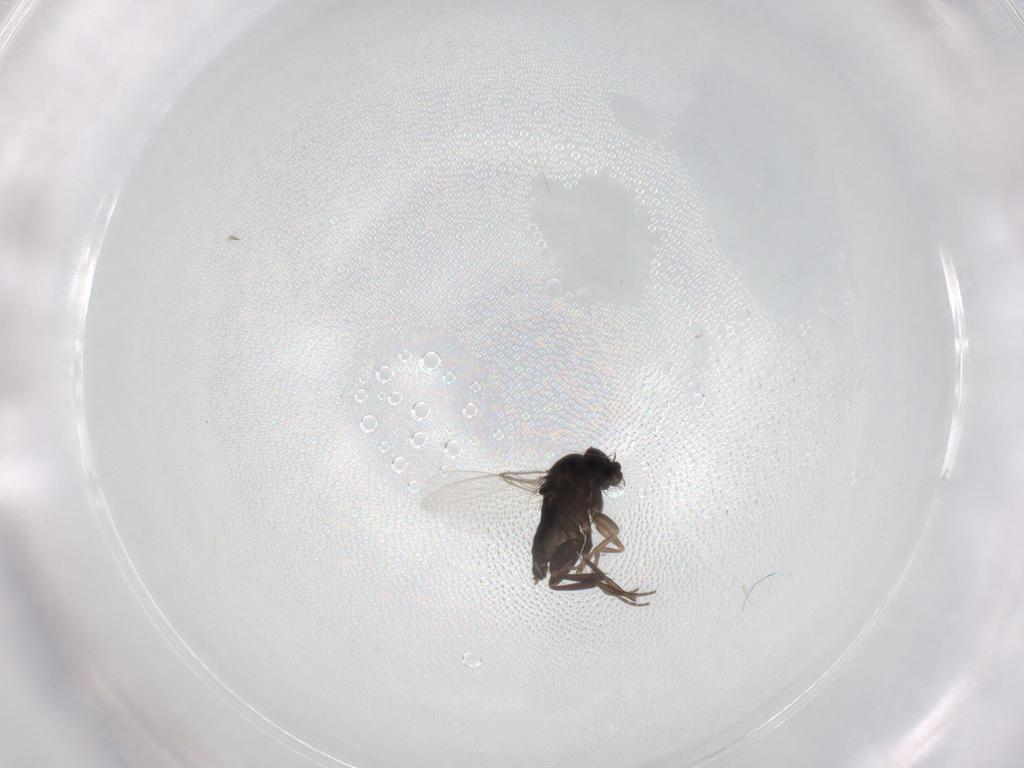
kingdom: Animalia
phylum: Arthropoda
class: Insecta
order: Diptera
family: Phoridae
